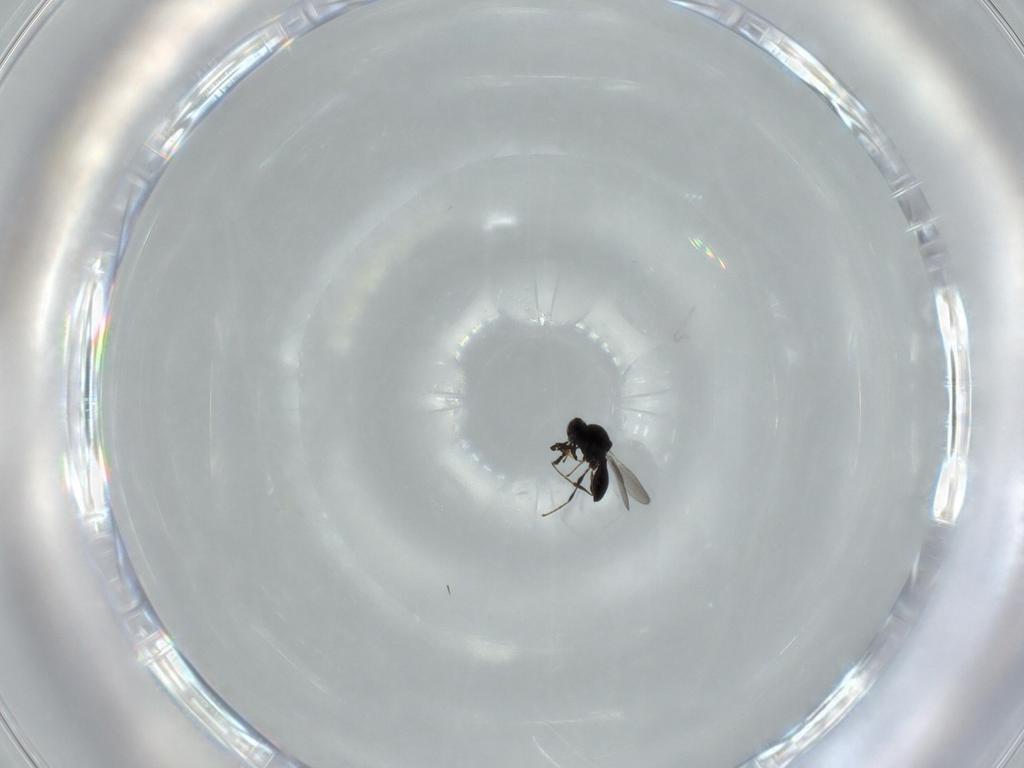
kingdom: Animalia
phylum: Arthropoda
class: Insecta
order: Diptera
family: Mythicomyiidae
